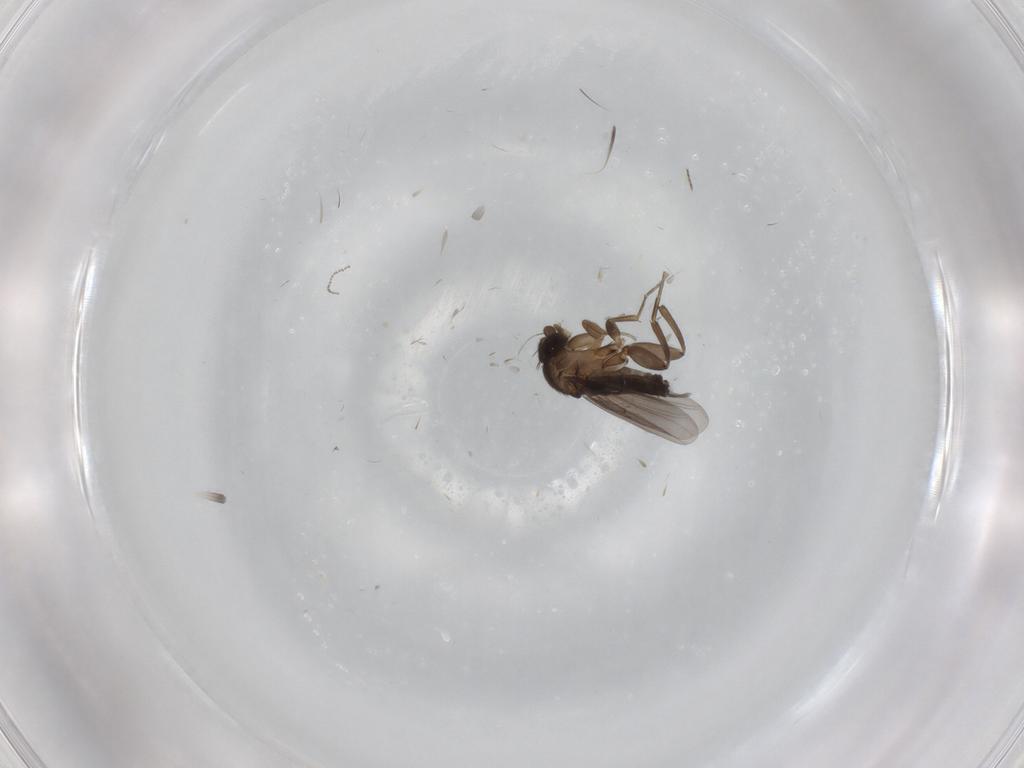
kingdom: Animalia
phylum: Arthropoda
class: Insecta
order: Diptera
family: Phoridae
